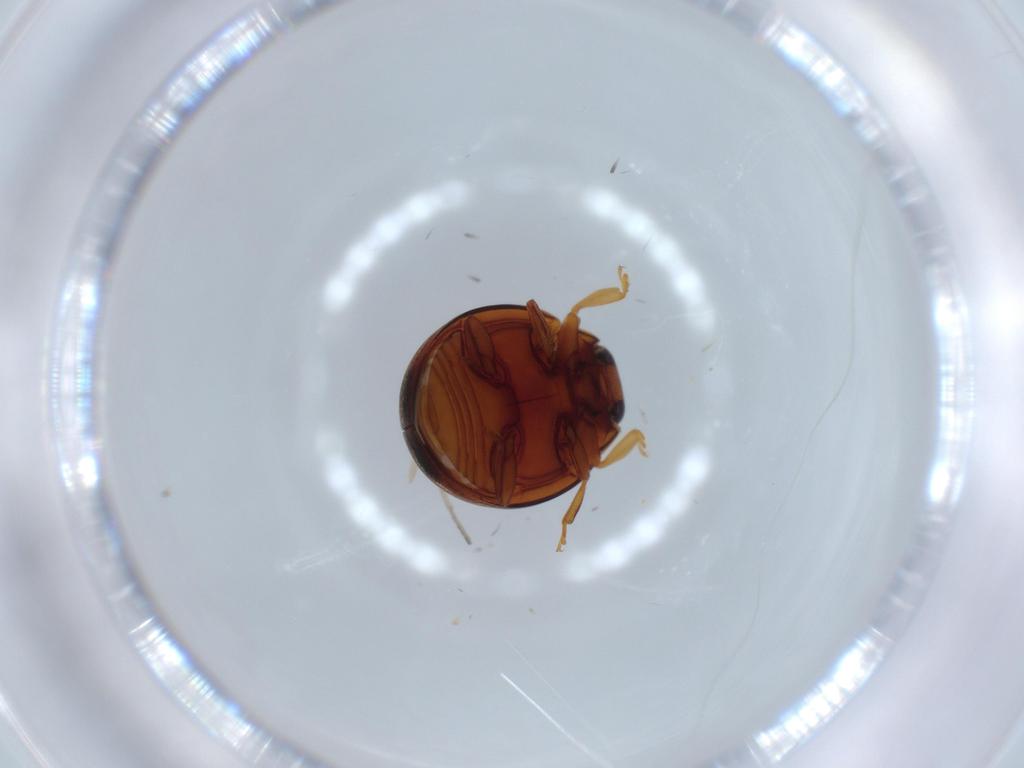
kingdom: Animalia
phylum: Arthropoda
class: Insecta
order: Coleoptera
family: Coccinellidae
